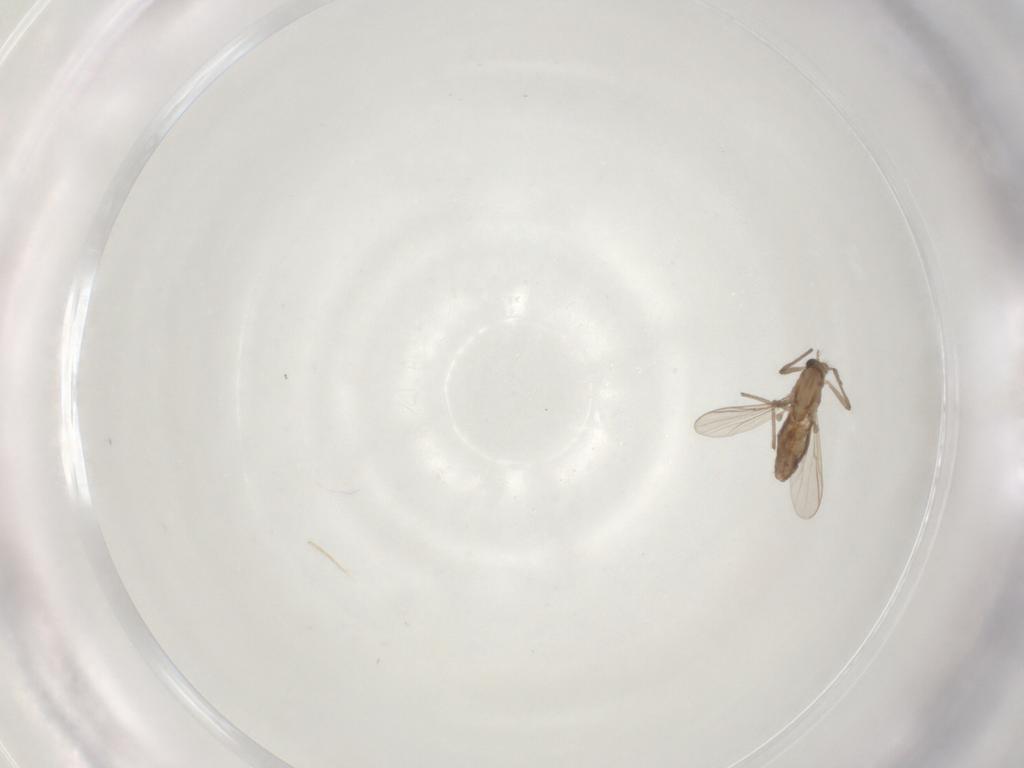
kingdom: Animalia
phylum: Arthropoda
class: Insecta
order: Diptera
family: Chironomidae
